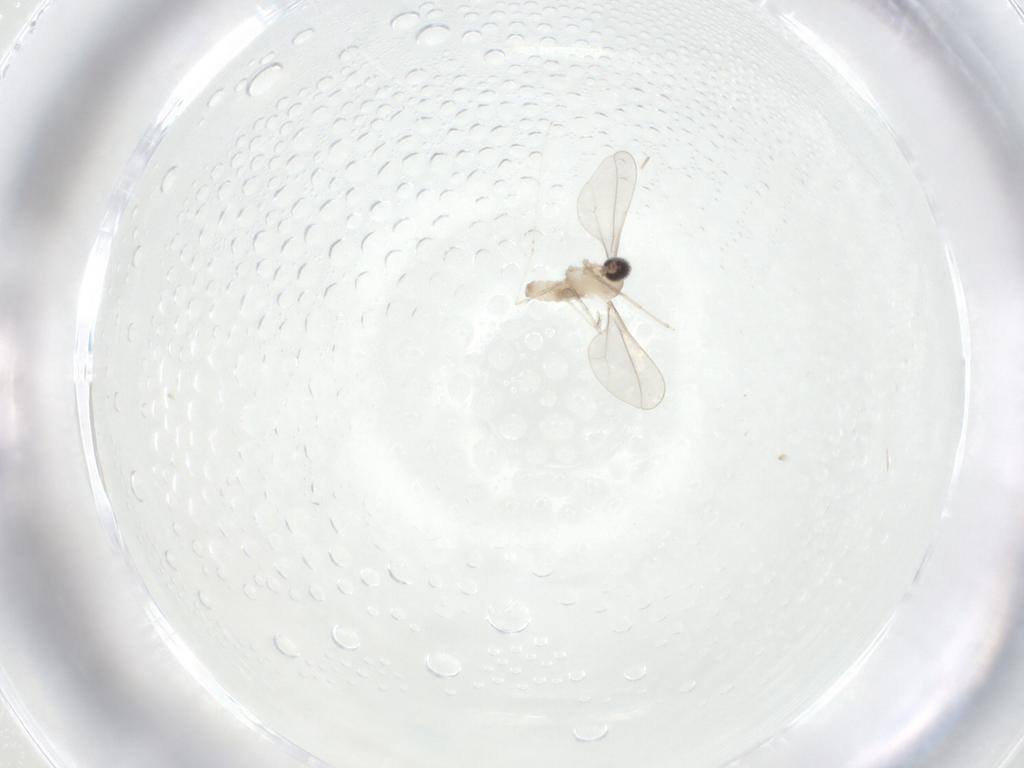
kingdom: Animalia
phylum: Arthropoda
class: Insecta
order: Diptera
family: Cecidomyiidae
